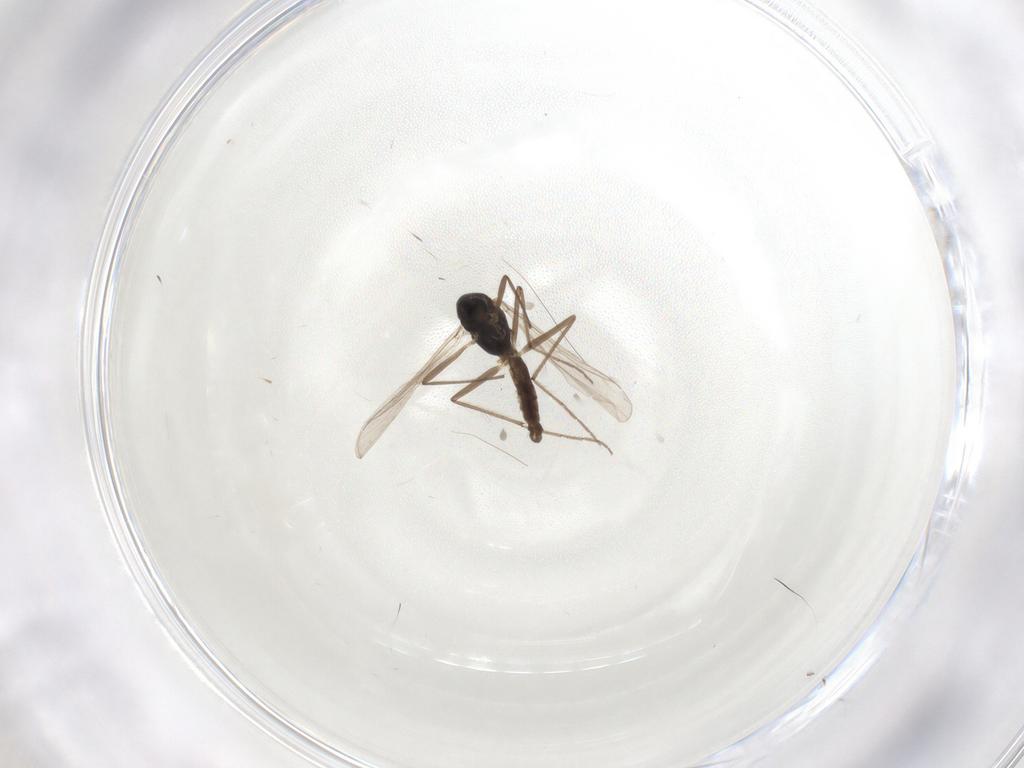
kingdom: Animalia
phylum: Arthropoda
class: Insecta
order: Diptera
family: Chironomidae
